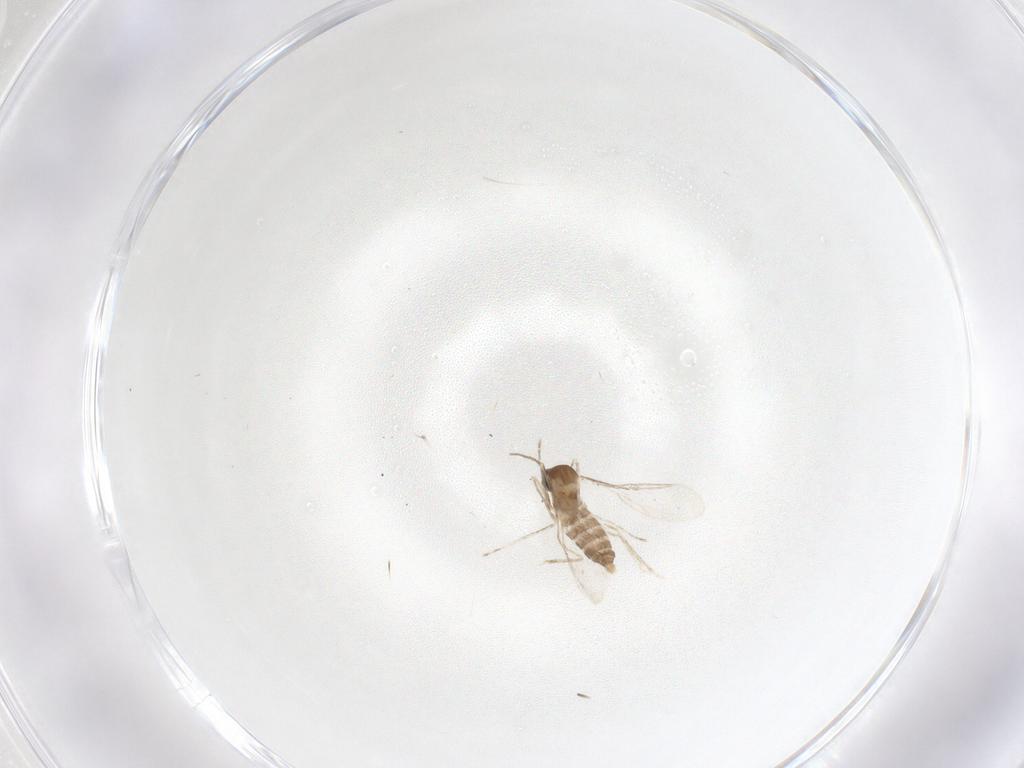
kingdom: Animalia
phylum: Arthropoda
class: Insecta
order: Diptera
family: Cecidomyiidae
